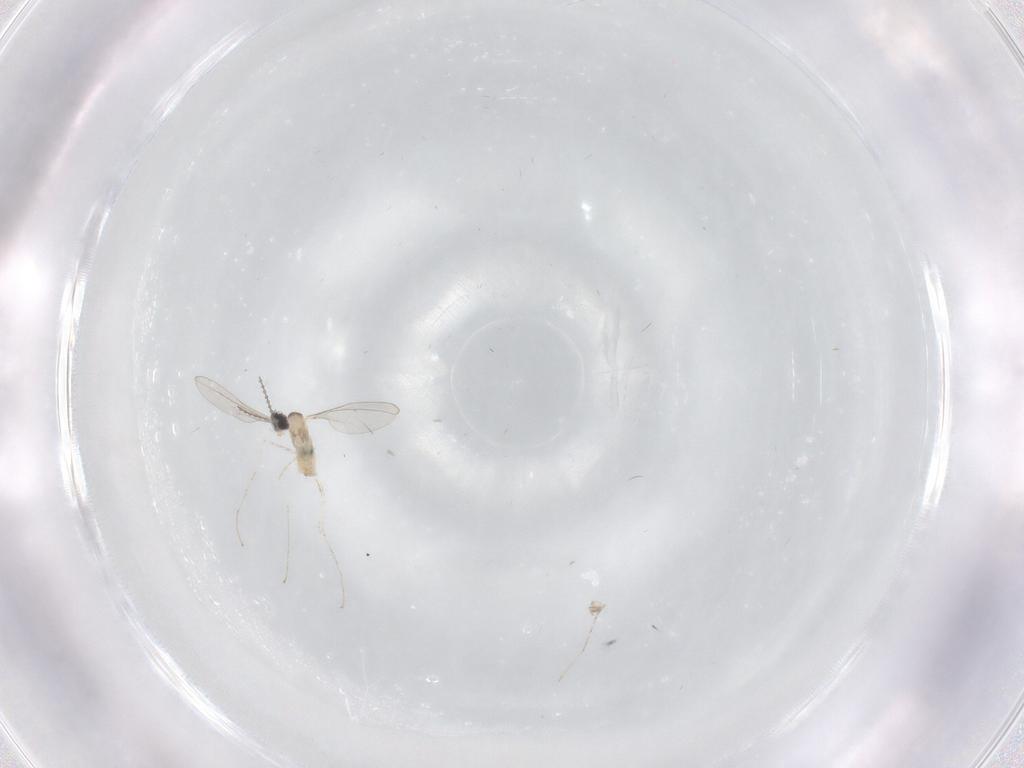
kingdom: Animalia
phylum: Arthropoda
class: Insecta
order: Diptera
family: Cecidomyiidae
